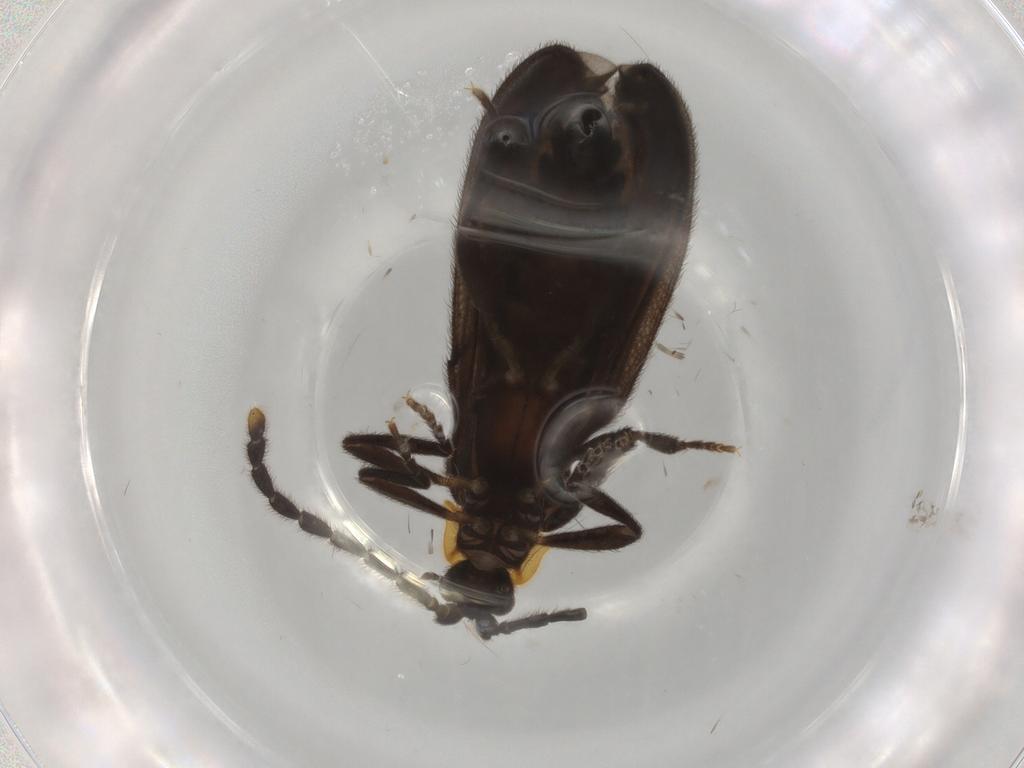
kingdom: Animalia
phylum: Arthropoda
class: Insecta
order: Coleoptera
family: Lycidae
